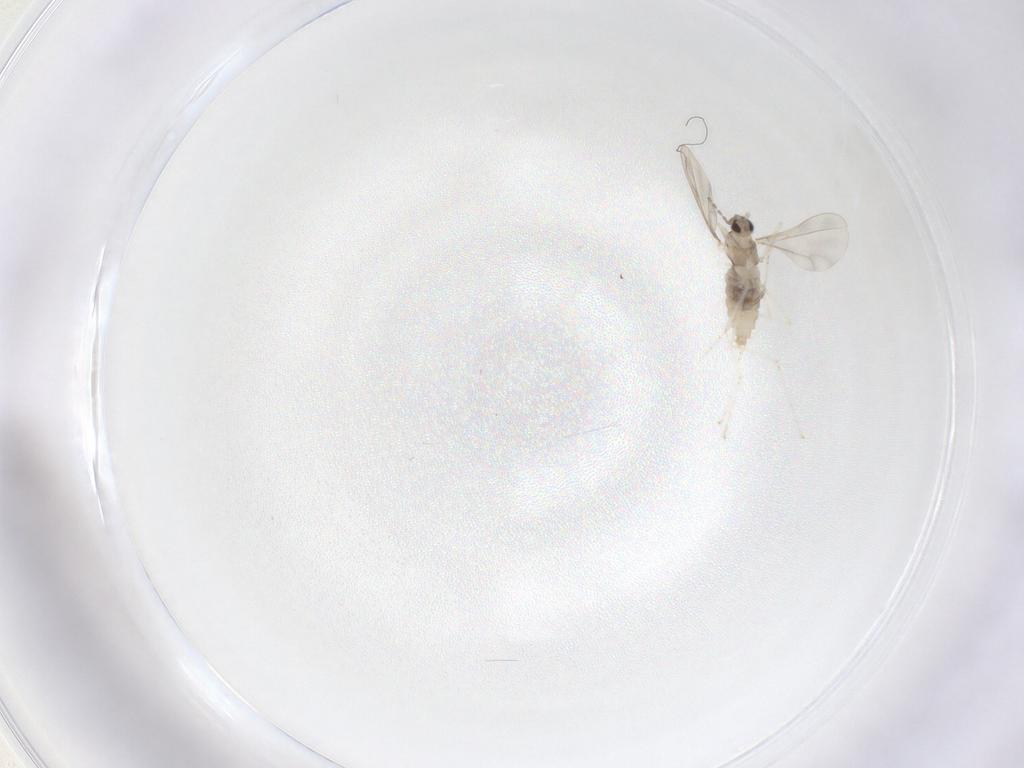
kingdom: Animalia
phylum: Arthropoda
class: Insecta
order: Diptera
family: Cecidomyiidae
